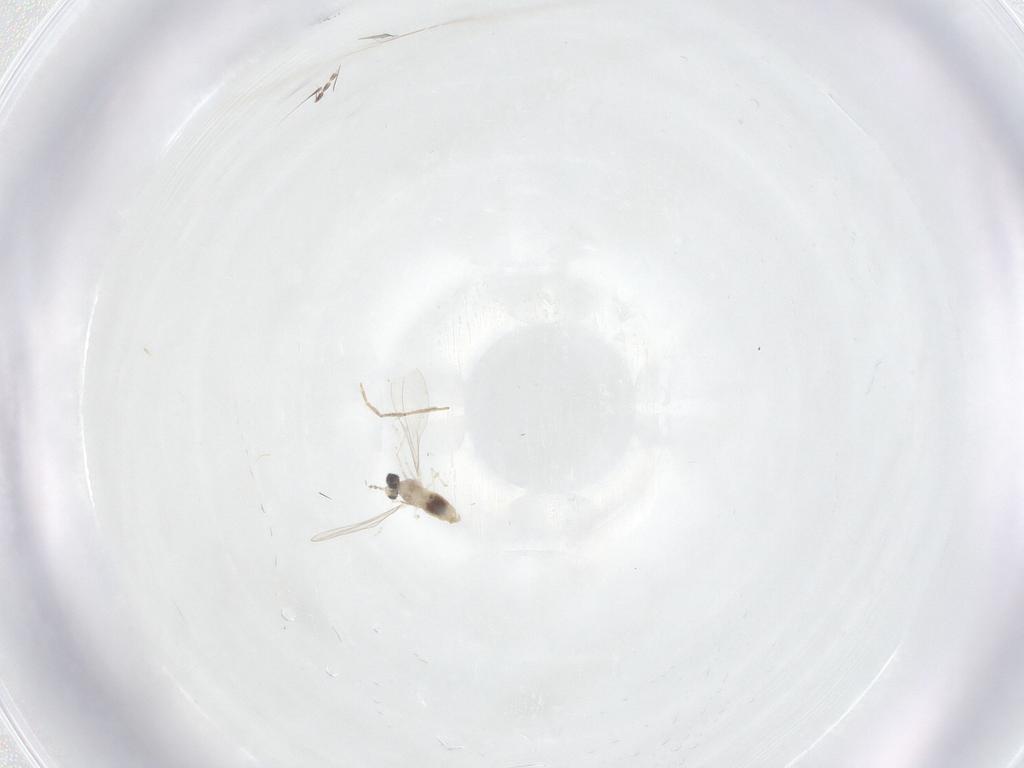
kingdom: Animalia
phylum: Arthropoda
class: Insecta
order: Diptera
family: Cecidomyiidae
